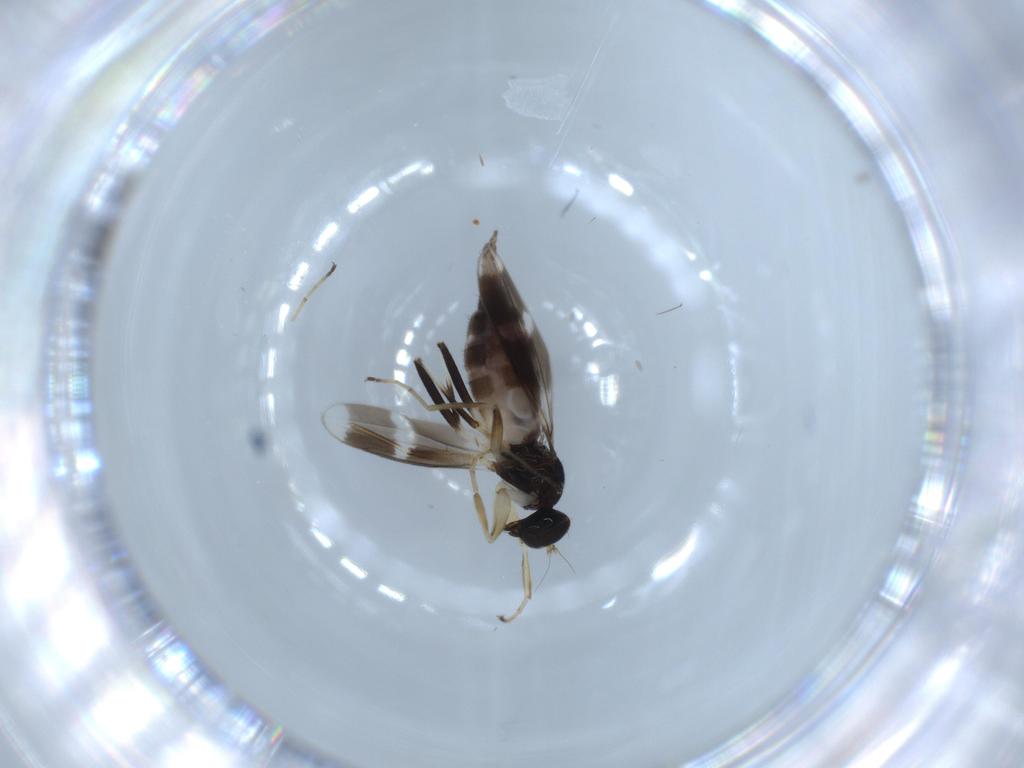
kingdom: Animalia
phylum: Arthropoda
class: Insecta
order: Diptera
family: Hybotidae
